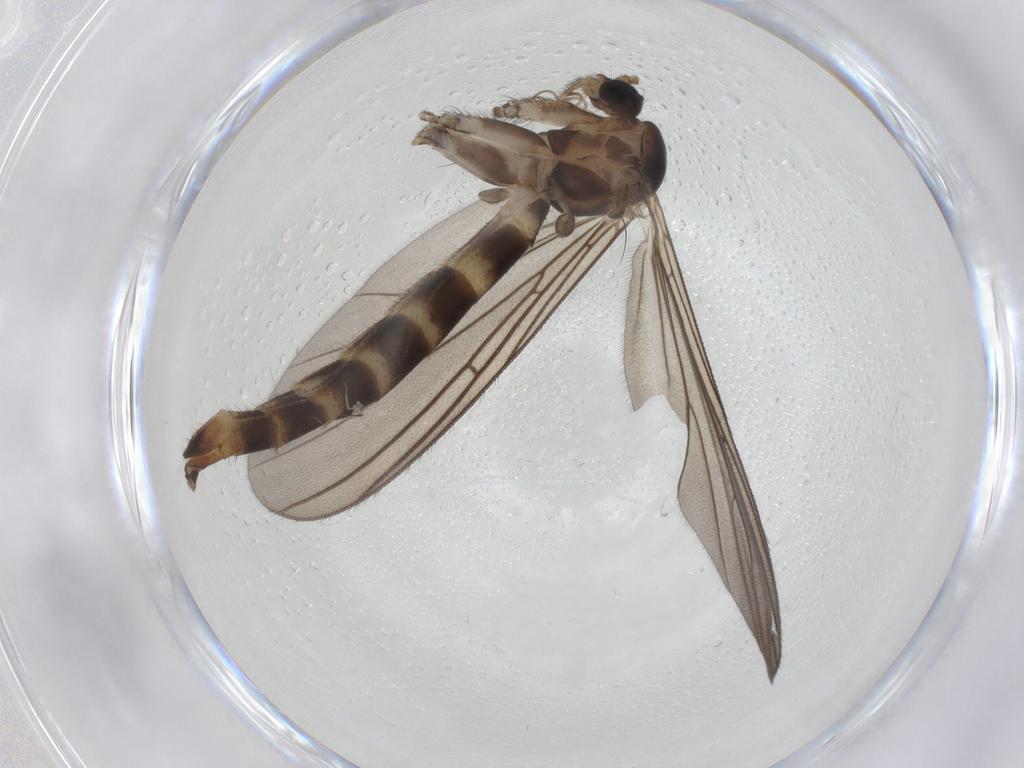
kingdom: Animalia
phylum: Arthropoda
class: Insecta
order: Diptera
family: Mycetophilidae
